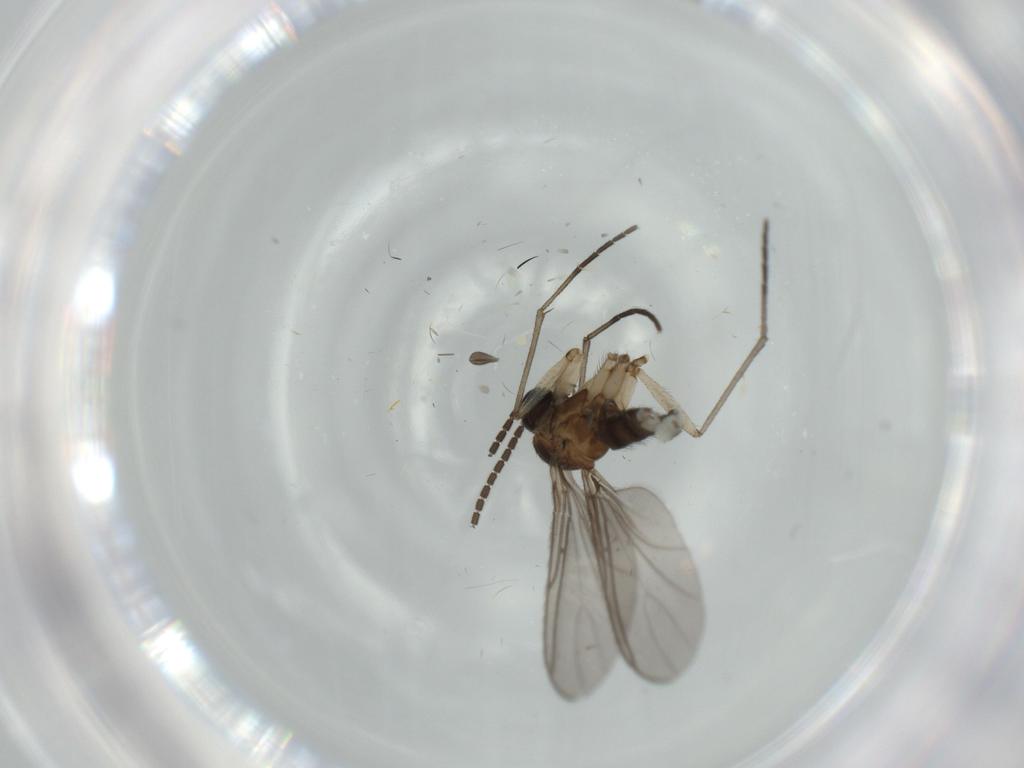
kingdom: Animalia
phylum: Arthropoda
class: Insecta
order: Diptera
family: Sciaridae
